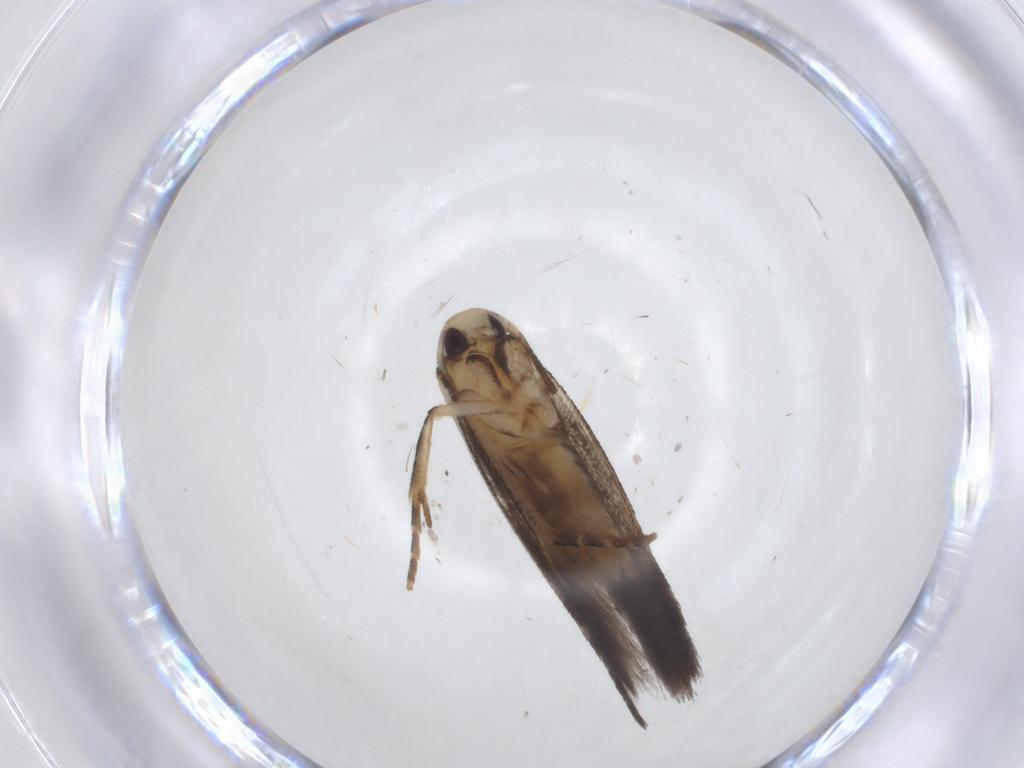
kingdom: Animalia
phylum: Arthropoda
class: Insecta
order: Lepidoptera
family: Cosmopterigidae
